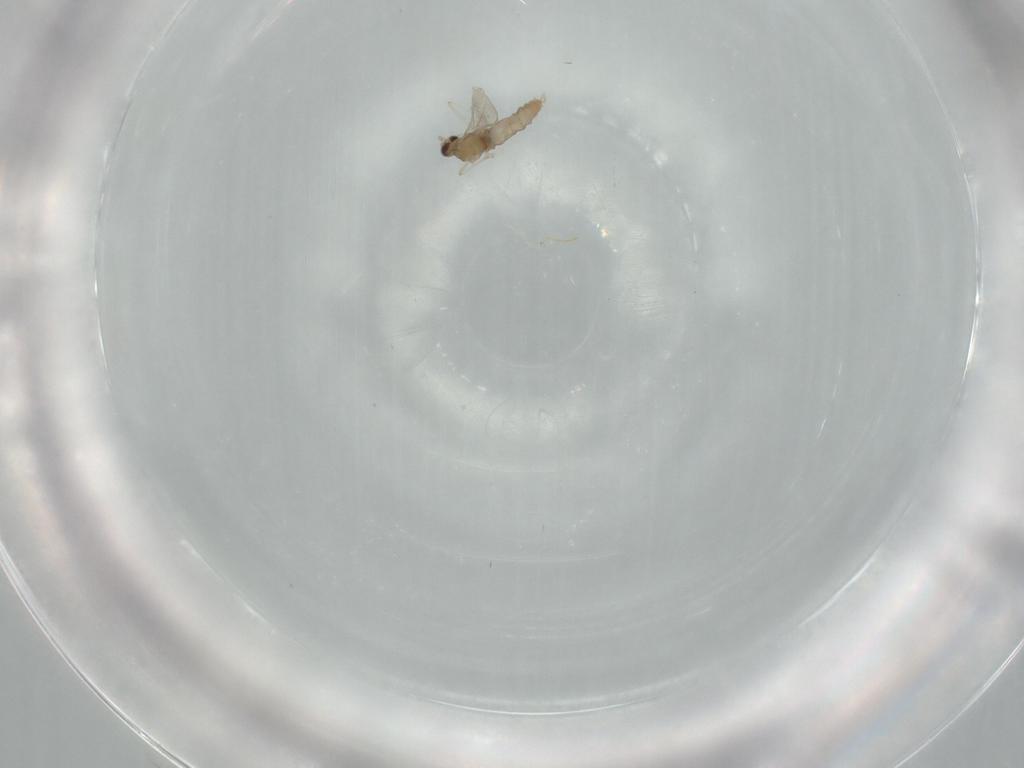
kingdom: Animalia
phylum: Arthropoda
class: Insecta
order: Diptera
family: Cecidomyiidae
